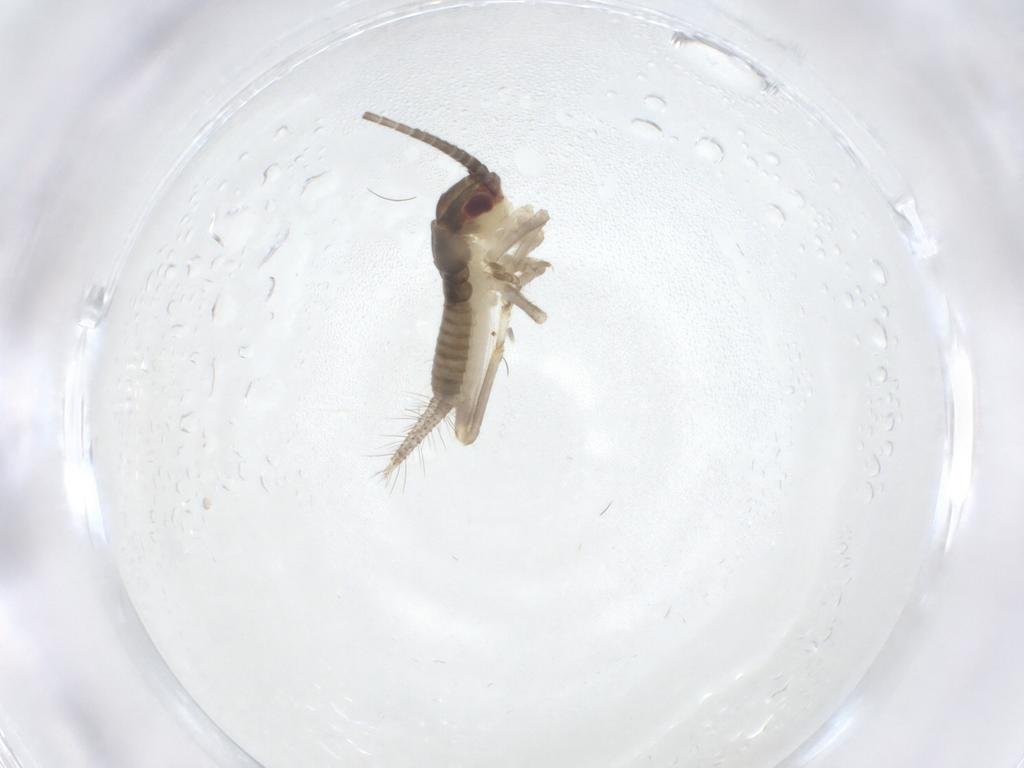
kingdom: Animalia
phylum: Arthropoda
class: Insecta
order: Orthoptera
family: Gryllidae
